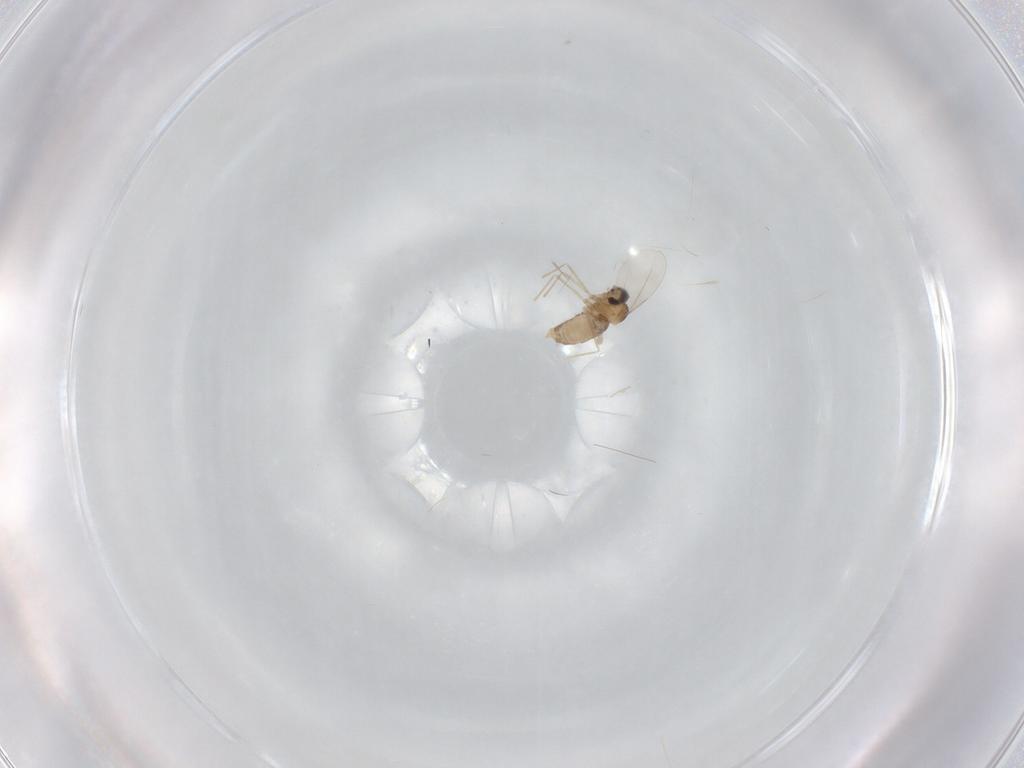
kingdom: Animalia
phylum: Arthropoda
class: Insecta
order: Diptera
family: Cecidomyiidae
